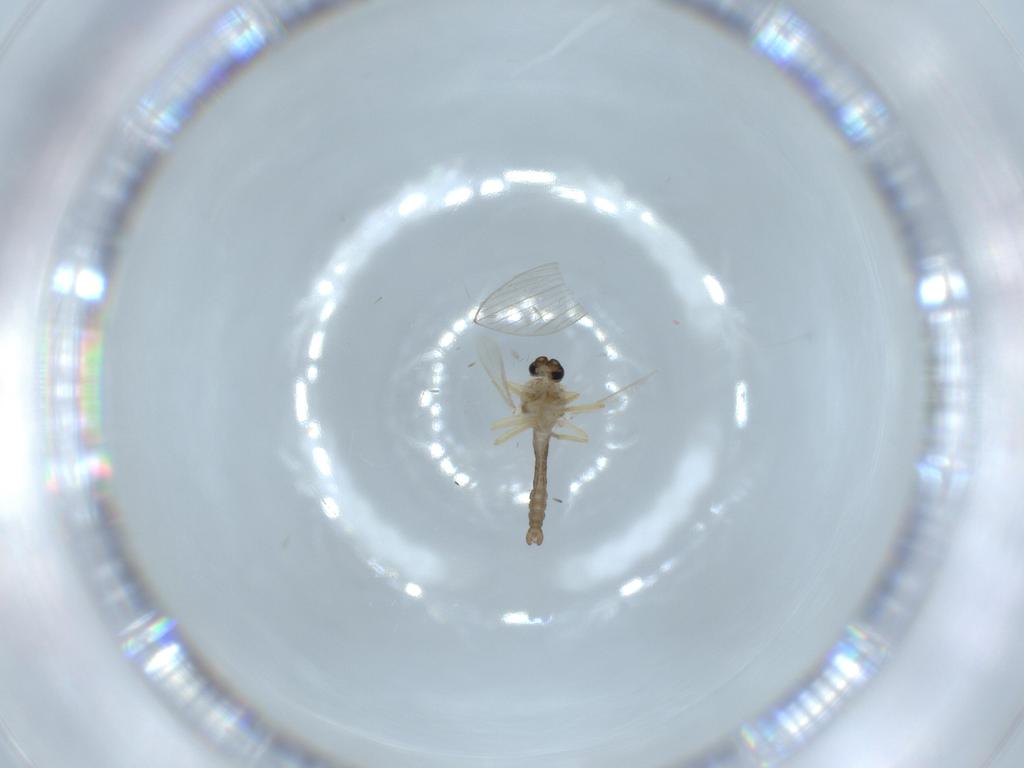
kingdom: Animalia
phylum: Arthropoda
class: Insecta
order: Diptera
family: Ceratopogonidae
